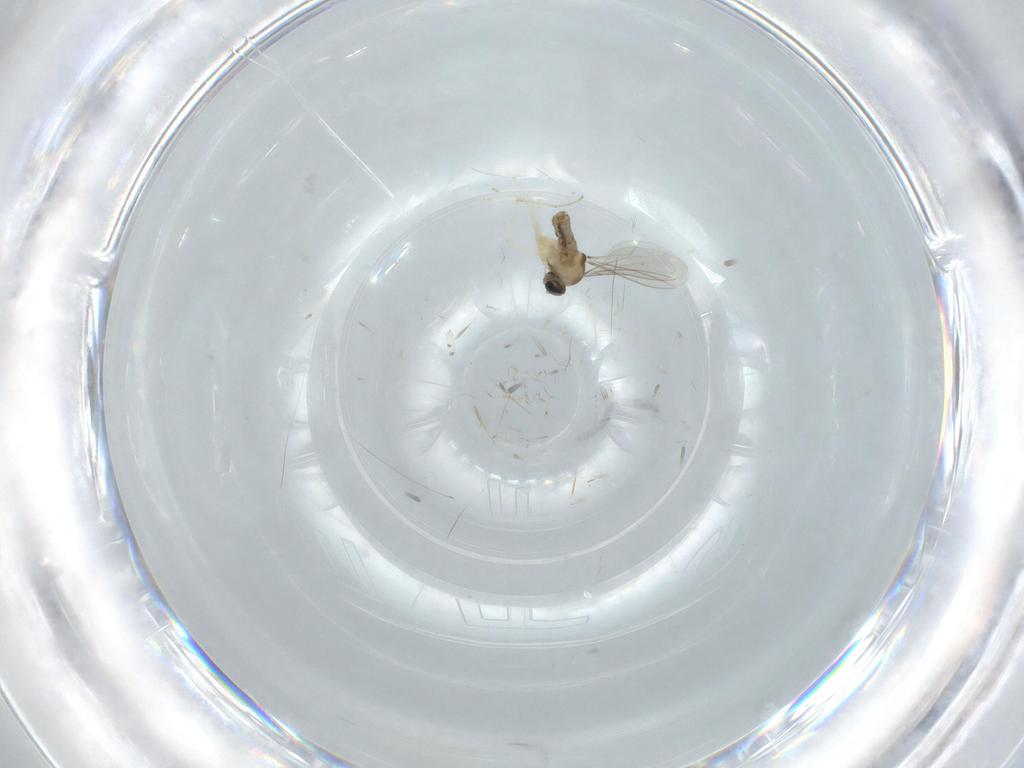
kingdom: Animalia
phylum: Arthropoda
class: Insecta
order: Diptera
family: Cecidomyiidae
